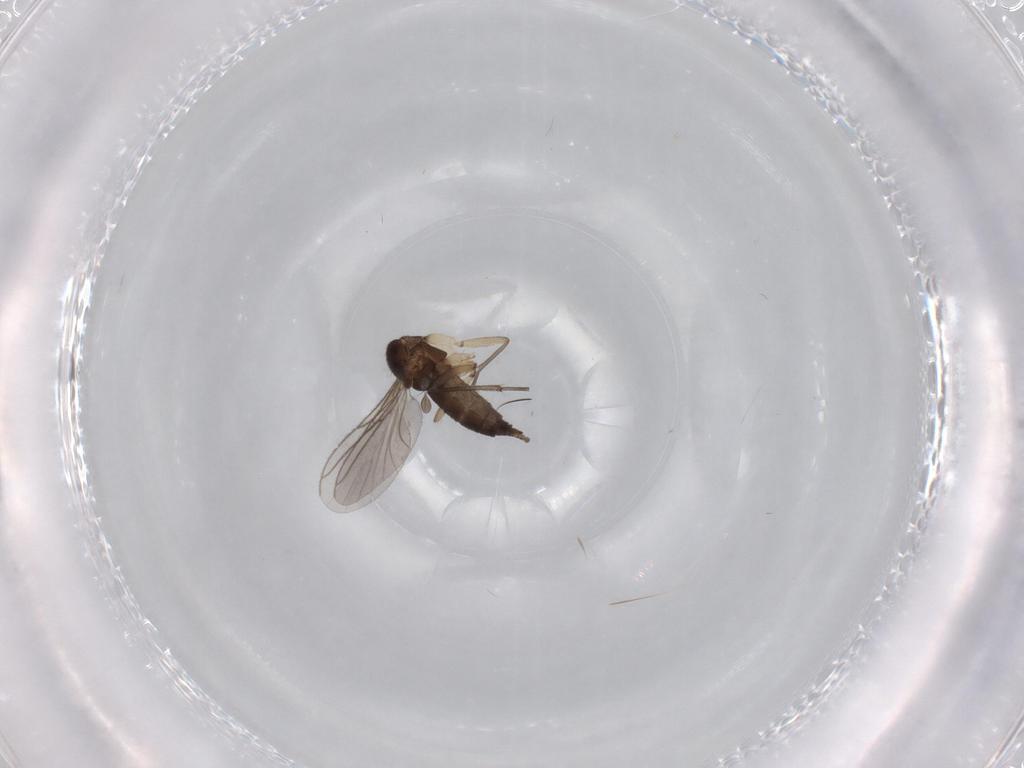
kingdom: Animalia
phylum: Arthropoda
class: Insecta
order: Diptera
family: Sciaridae
